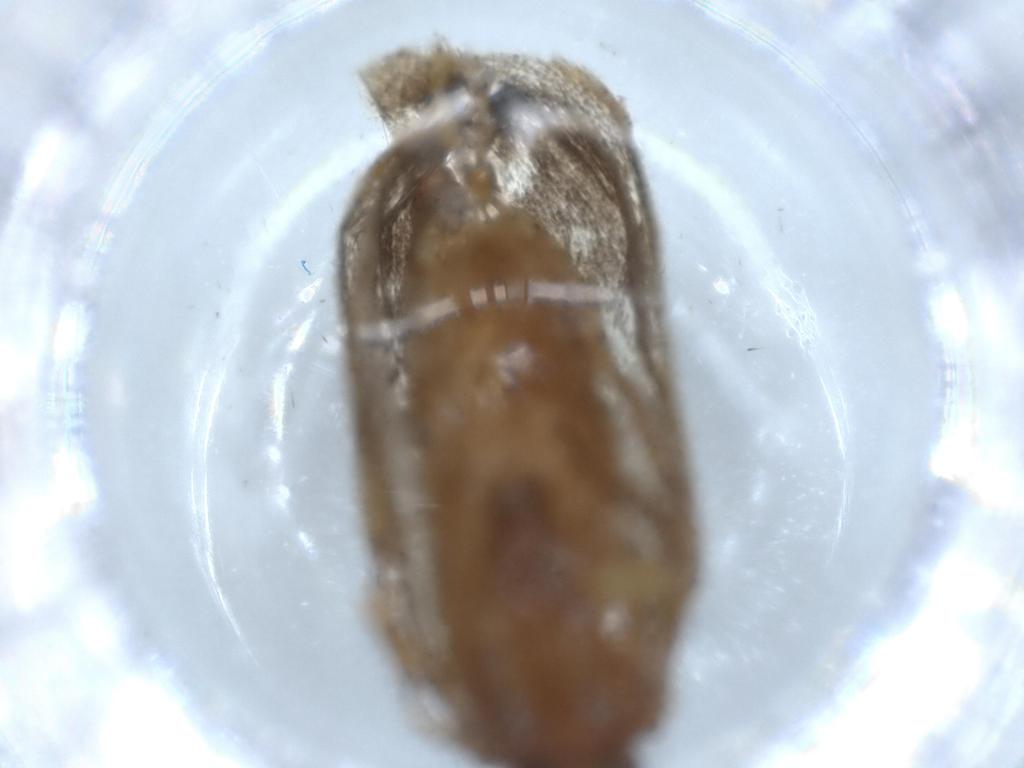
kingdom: Animalia
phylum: Arthropoda
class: Insecta
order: Lepidoptera
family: Tineidae
